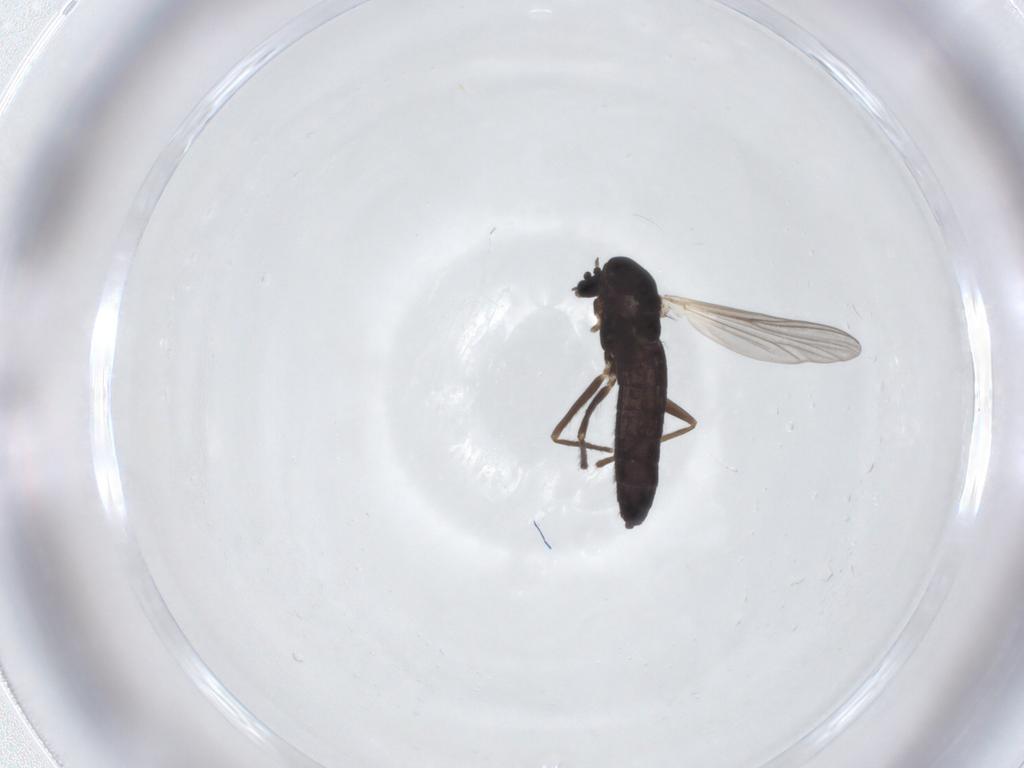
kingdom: Animalia
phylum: Arthropoda
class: Insecta
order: Diptera
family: Chironomidae
